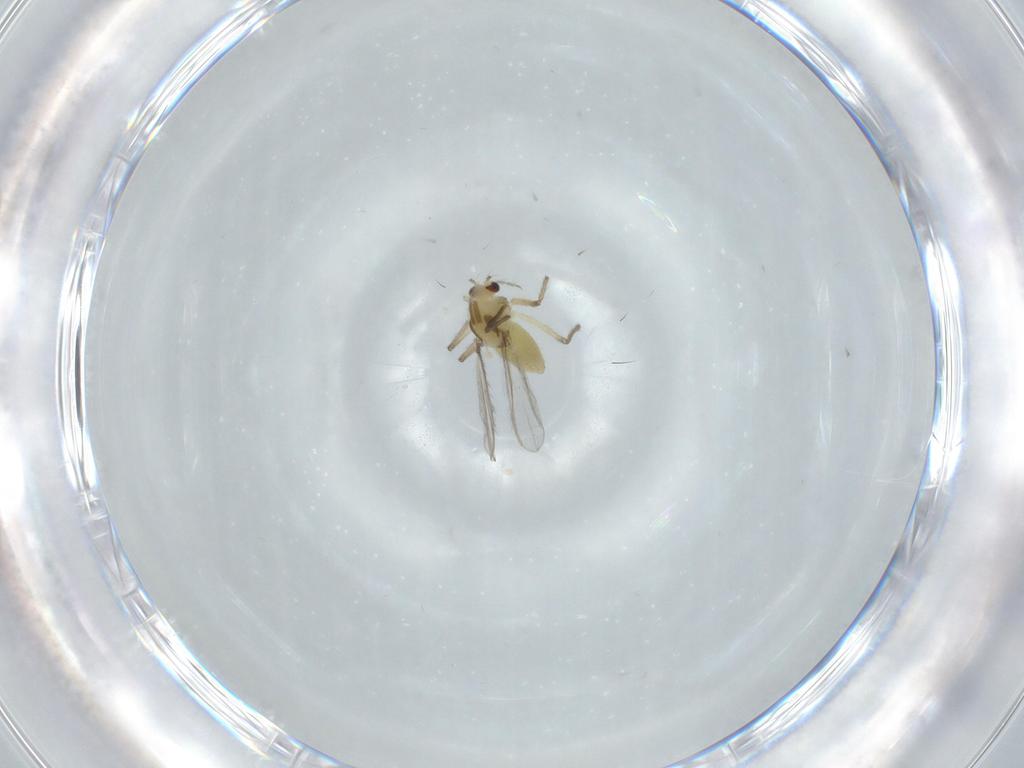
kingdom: Animalia
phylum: Arthropoda
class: Insecta
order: Diptera
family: Chironomidae
